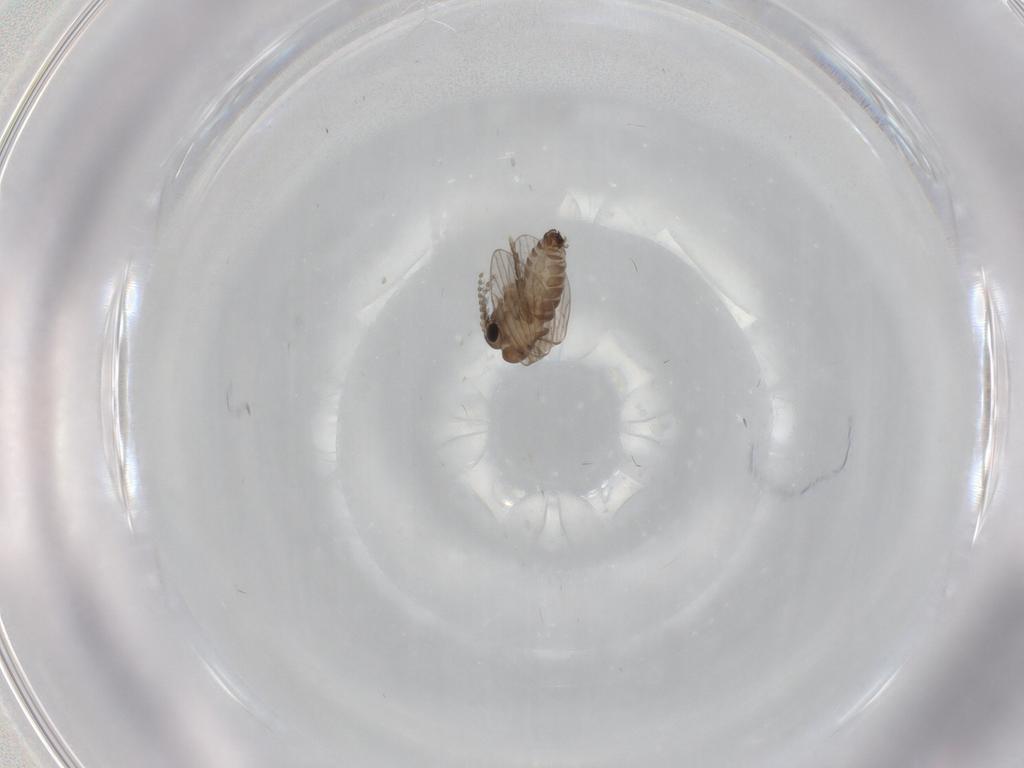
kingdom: Animalia
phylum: Arthropoda
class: Insecta
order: Diptera
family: Psychodidae
